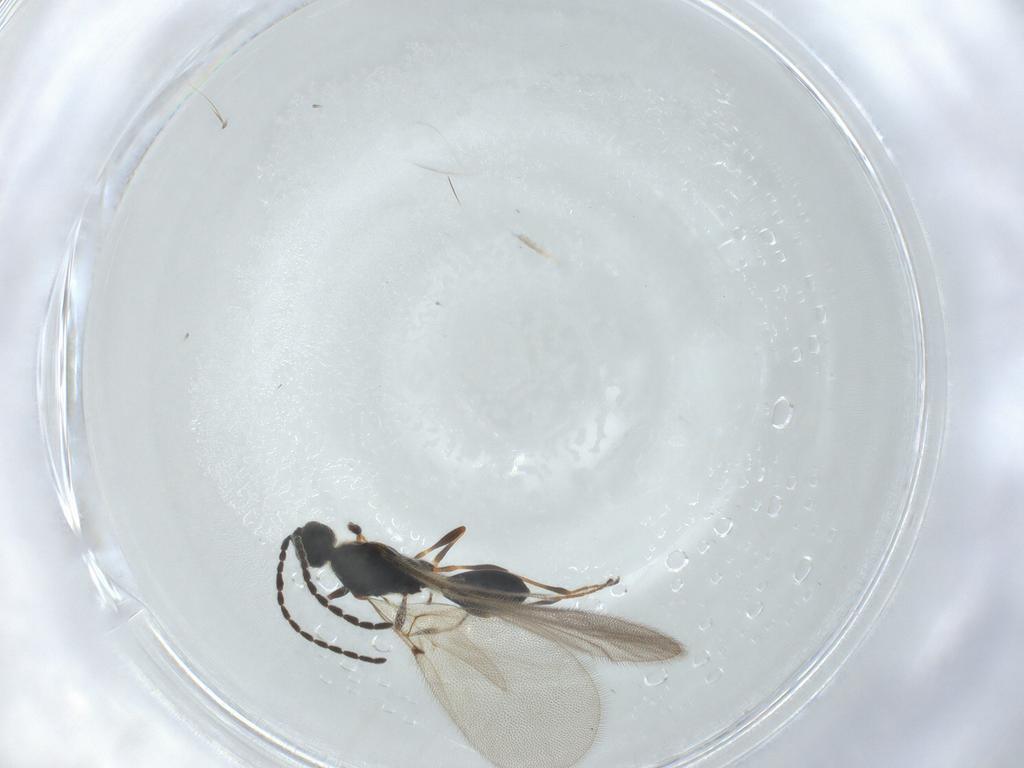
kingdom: Animalia
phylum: Arthropoda
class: Insecta
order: Hymenoptera
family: Diapriidae
